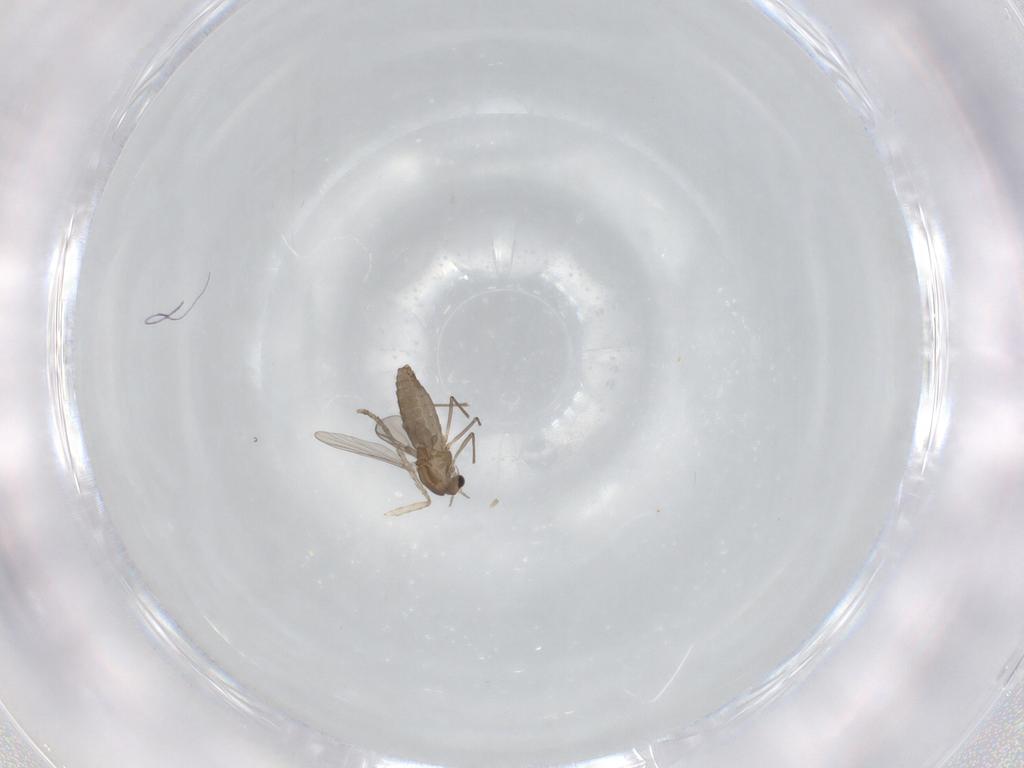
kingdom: Animalia
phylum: Arthropoda
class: Insecta
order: Diptera
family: Chironomidae
